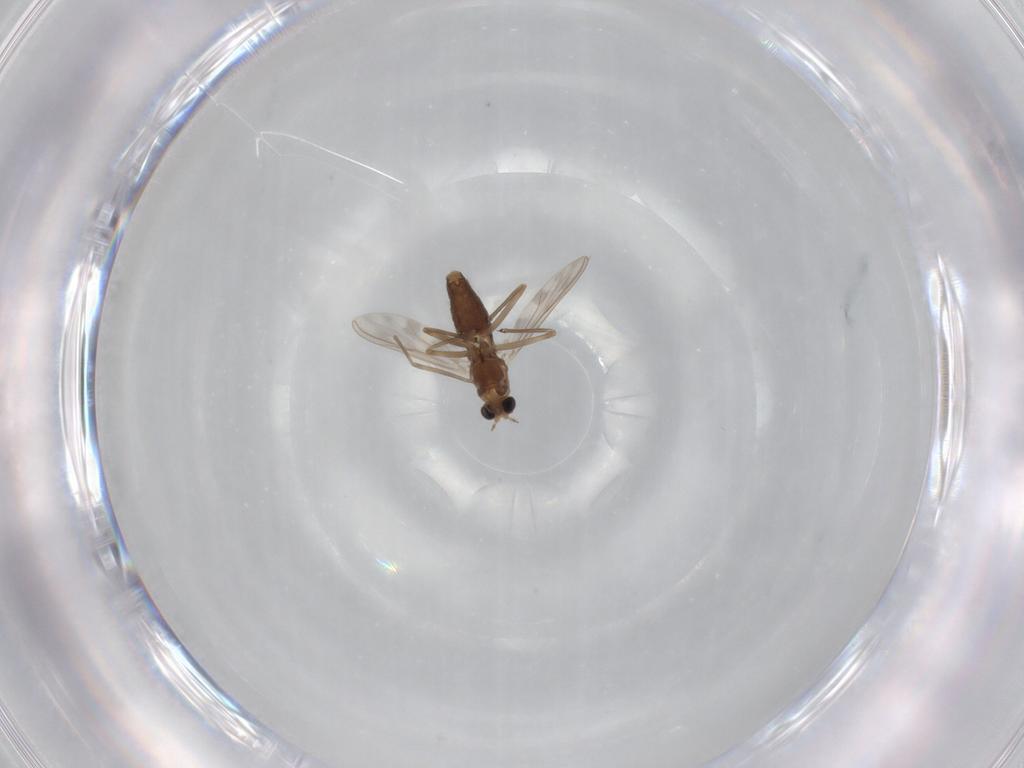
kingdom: Animalia
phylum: Arthropoda
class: Insecta
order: Diptera
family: Chironomidae
